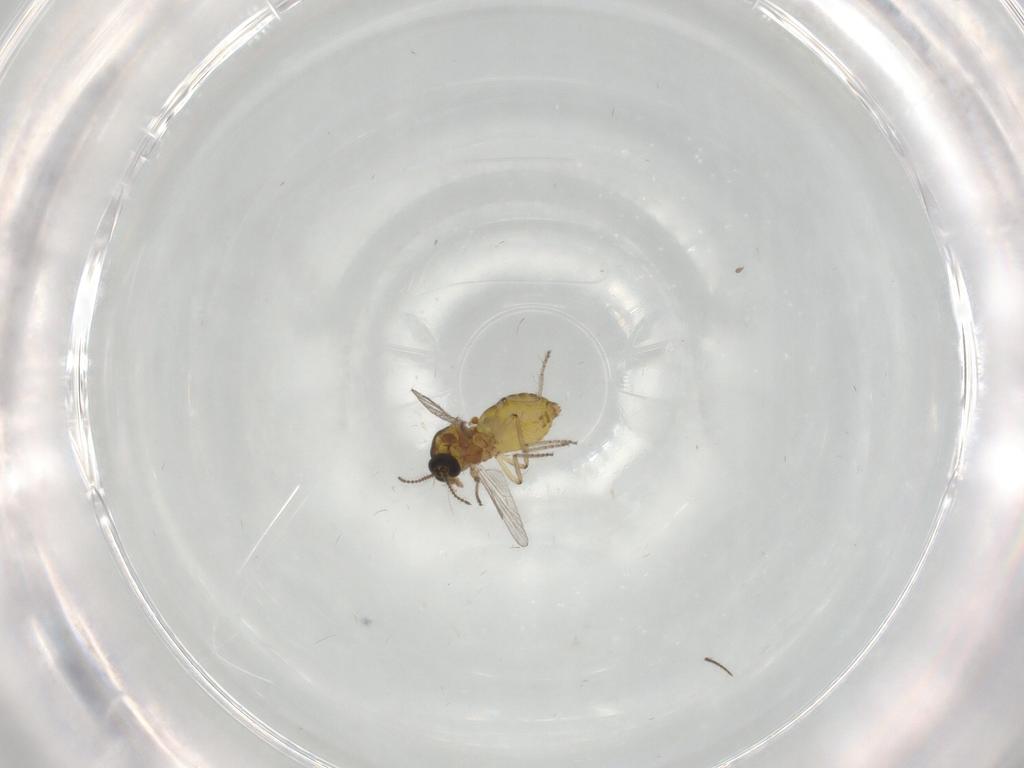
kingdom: Animalia
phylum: Arthropoda
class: Insecta
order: Diptera
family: Ceratopogonidae
